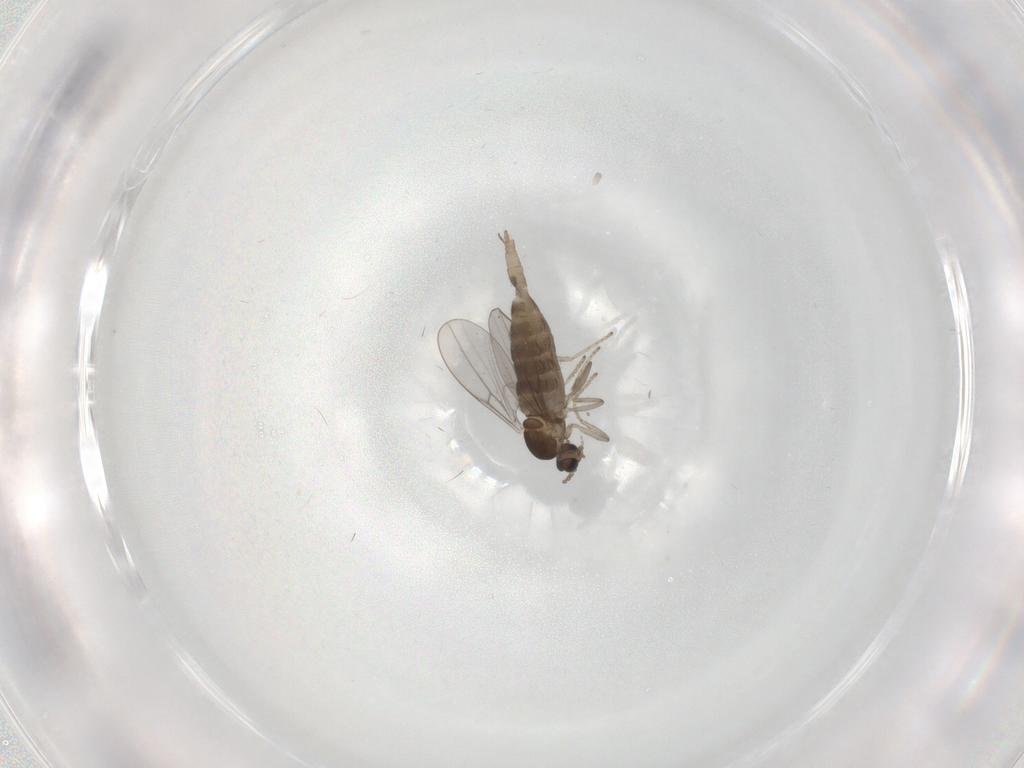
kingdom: Animalia
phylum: Arthropoda
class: Insecta
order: Diptera
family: Cecidomyiidae
